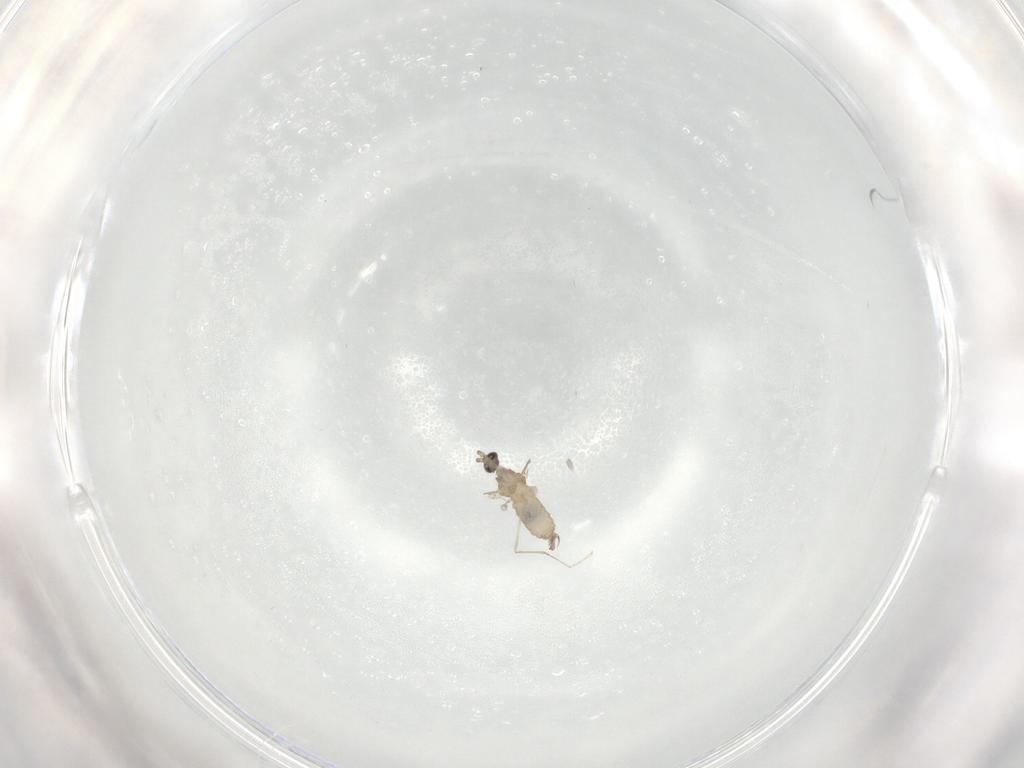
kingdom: Animalia
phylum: Arthropoda
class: Insecta
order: Diptera
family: Cecidomyiidae
